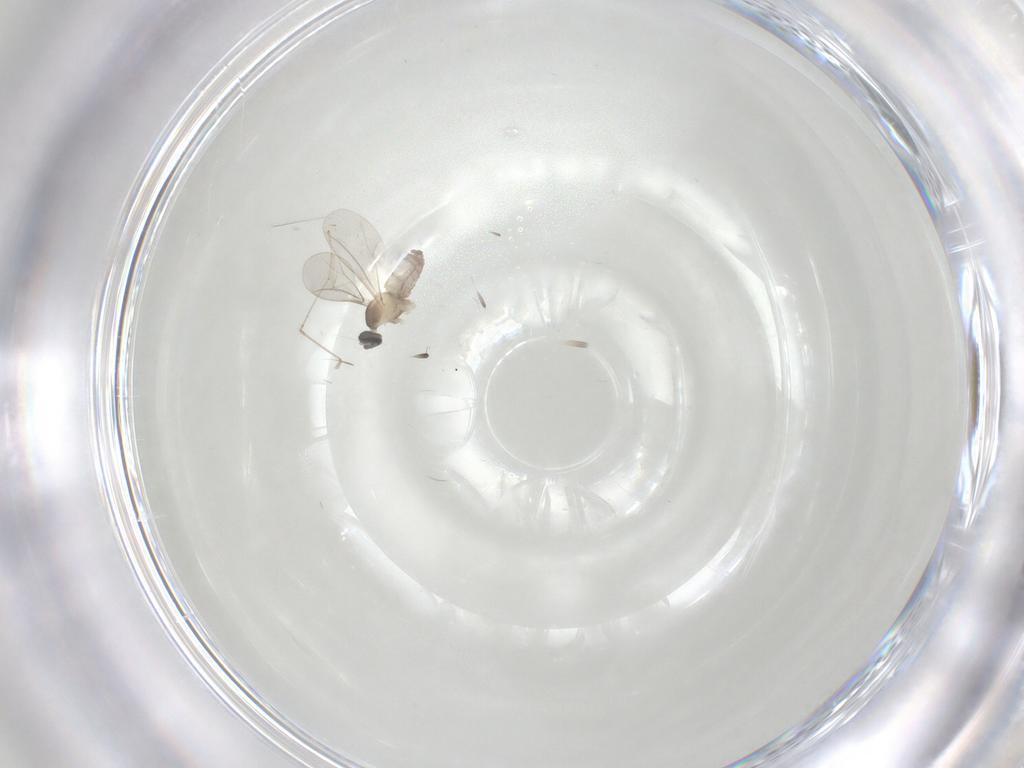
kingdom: Animalia
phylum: Arthropoda
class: Insecta
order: Diptera
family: Cecidomyiidae
